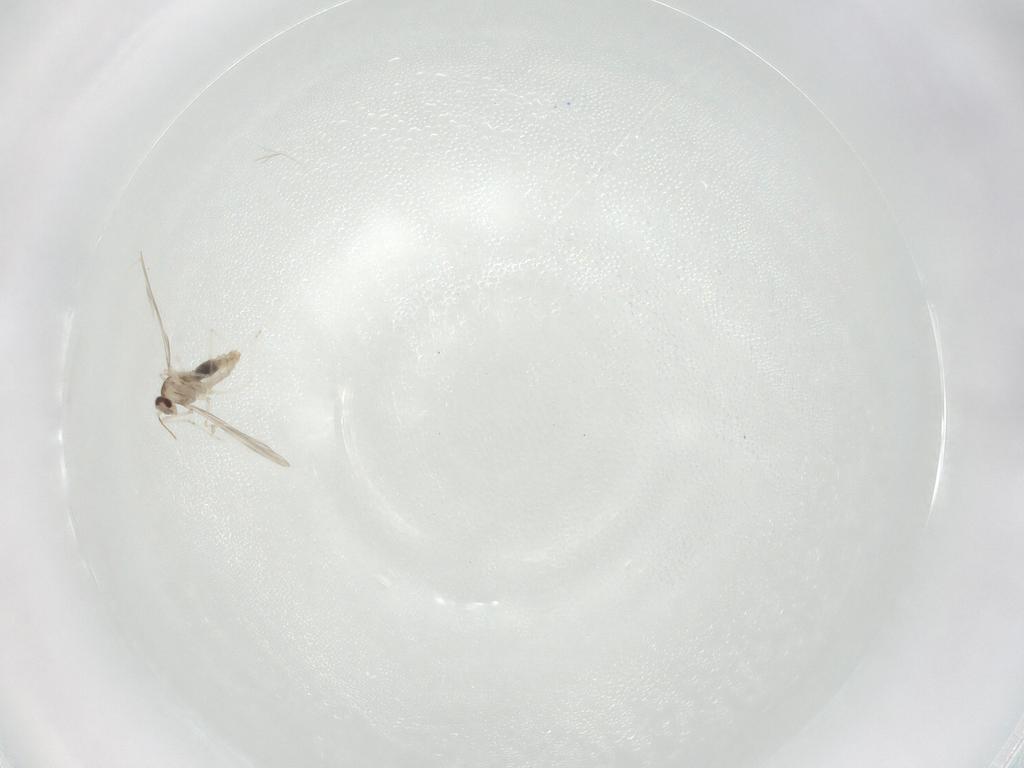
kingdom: Animalia
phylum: Arthropoda
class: Insecta
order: Diptera
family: Cecidomyiidae
